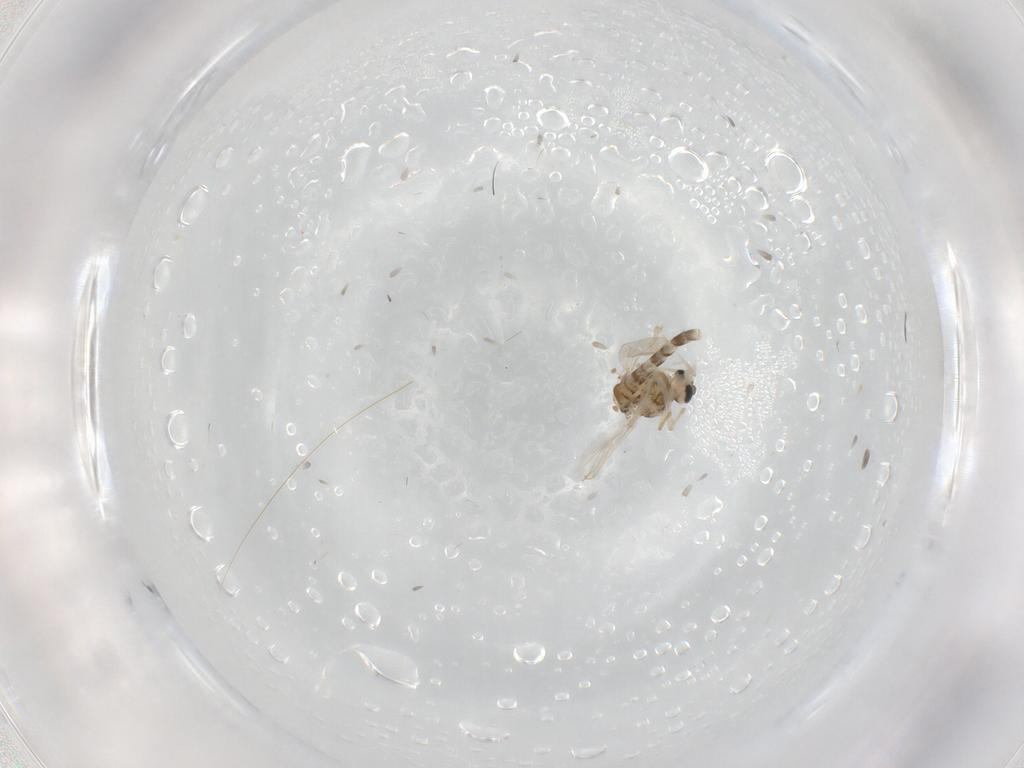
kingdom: Animalia
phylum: Arthropoda
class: Insecta
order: Diptera
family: Chironomidae
